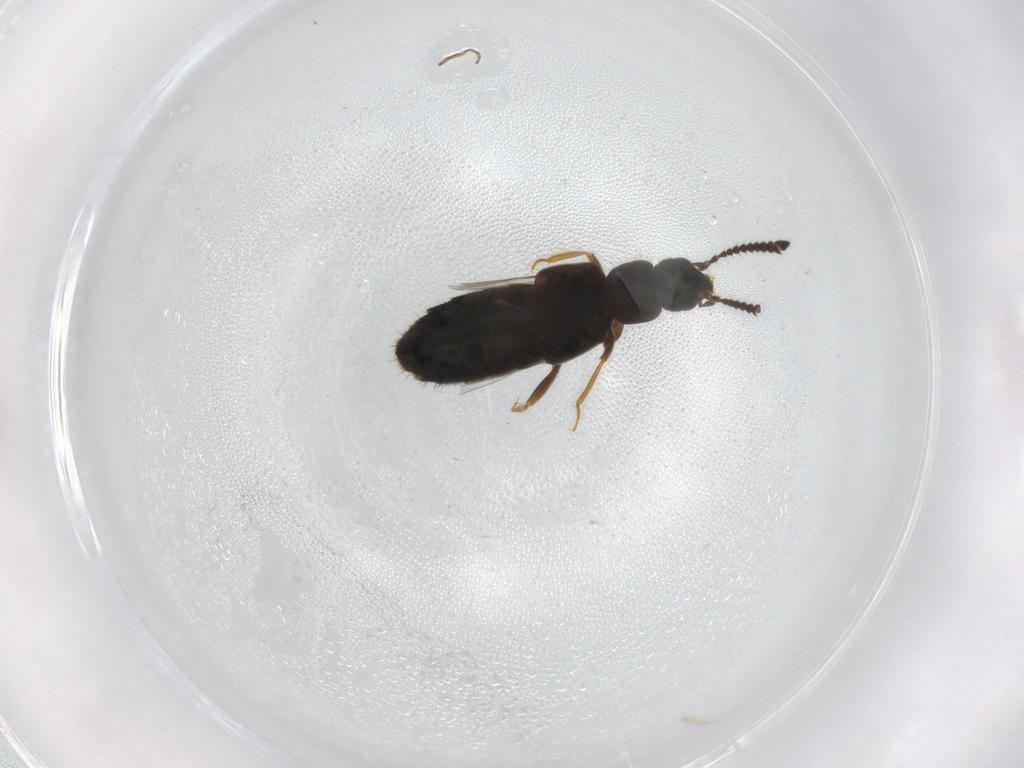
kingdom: Animalia
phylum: Arthropoda
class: Insecta
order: Coleoptera
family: Staphylinidae
